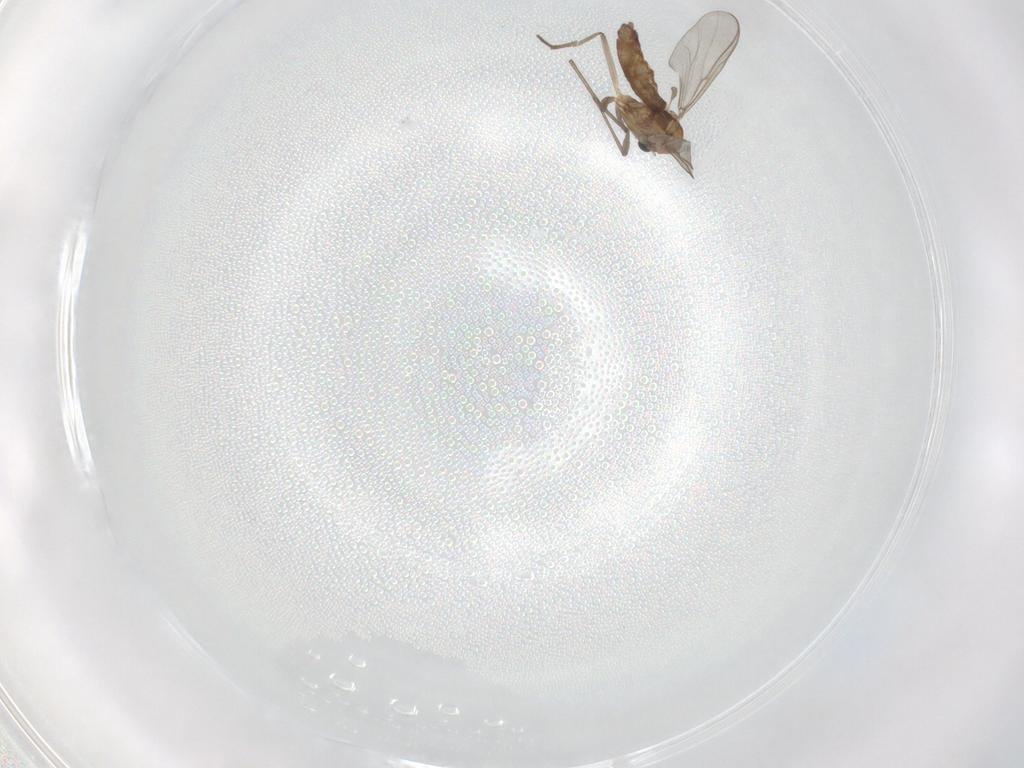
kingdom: Animalia
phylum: Arthropoda
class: Insecta
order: Diptera
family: Chironomidae
